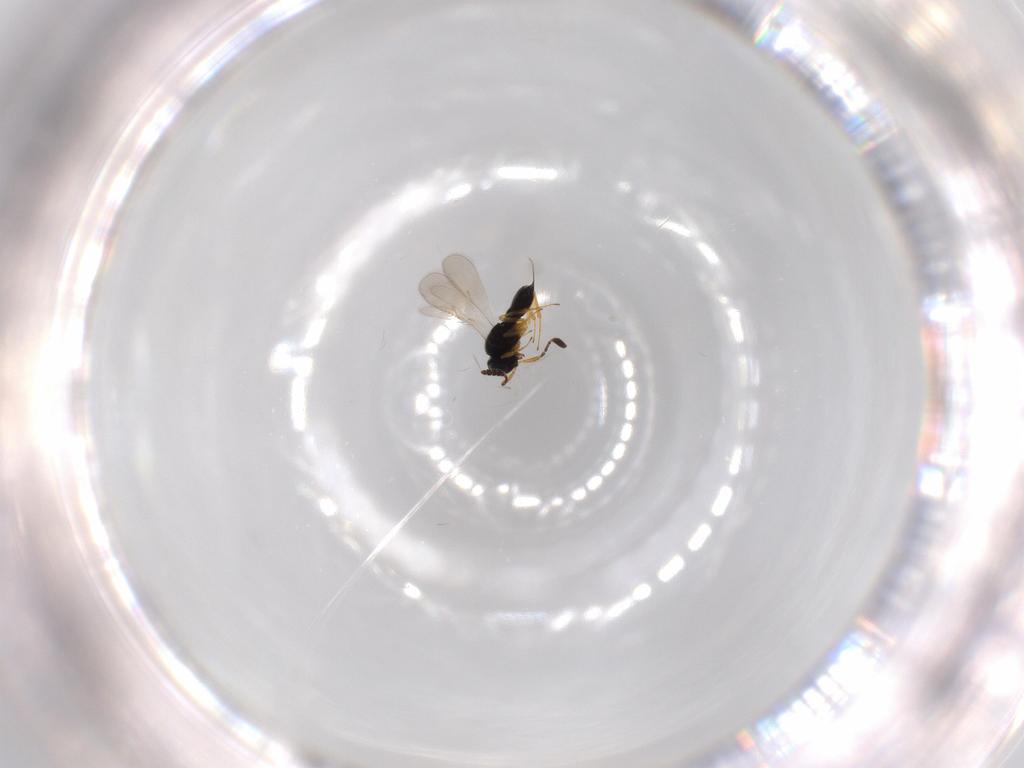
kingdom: Animalia
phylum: Arthropoda
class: Insecta
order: Hymenoptera
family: Scelionidae
